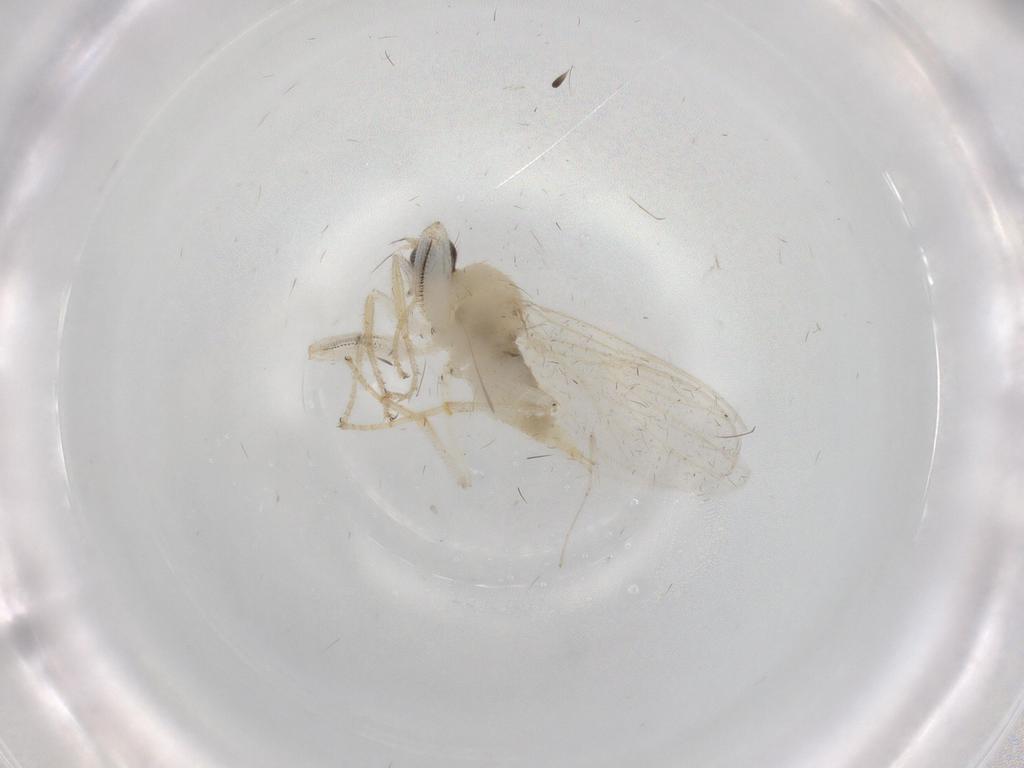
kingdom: Animalia
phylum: Arthropoda
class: Insecta
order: Diptera
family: Hybotidae
